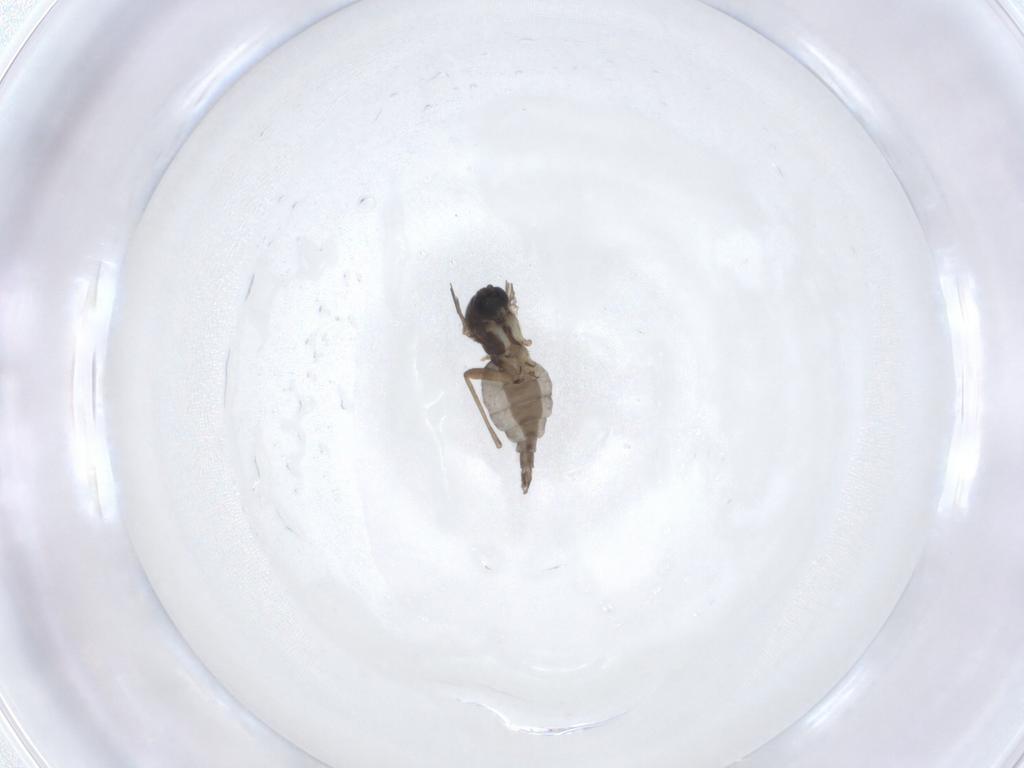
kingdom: Animalia
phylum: Arthropoda
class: Insecta
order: Diptera
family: Sciaridae
